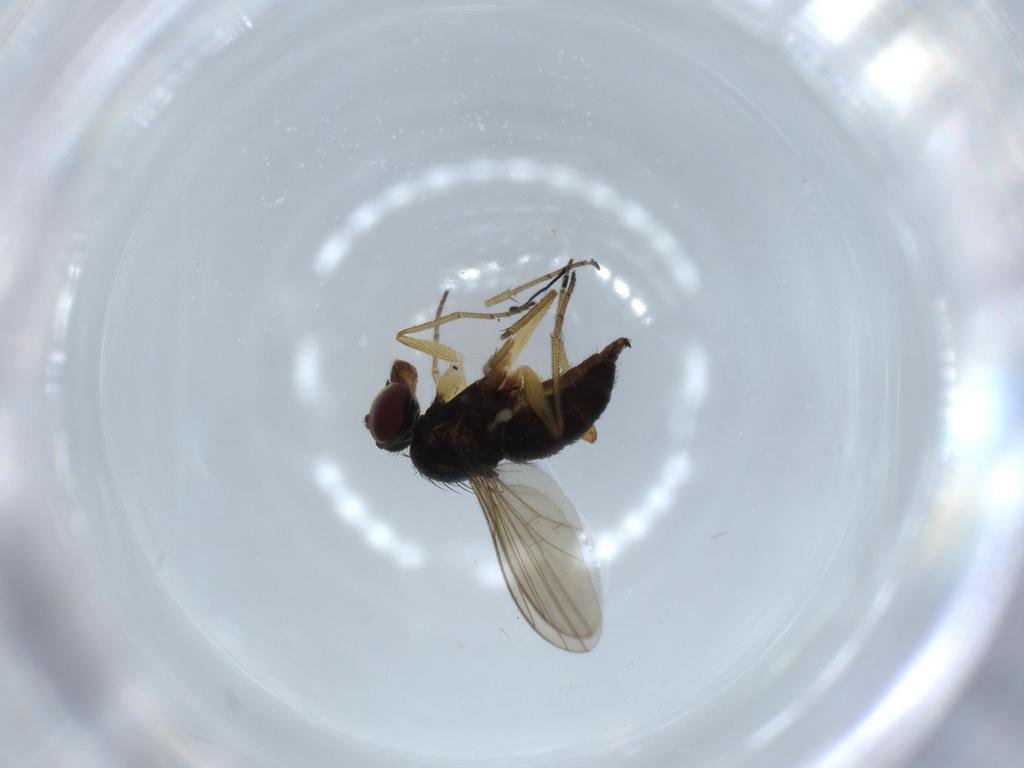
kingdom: Animalia
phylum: Arthropoda
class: Insecta
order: Diptera
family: Dolichopodidae
